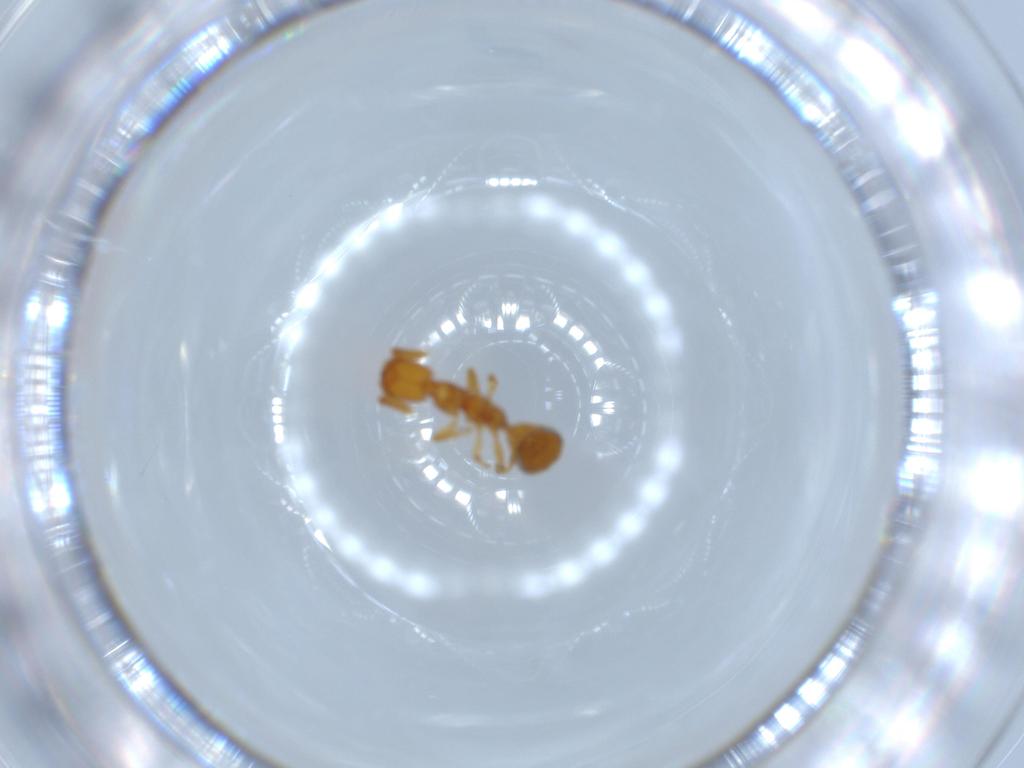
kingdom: Animalia
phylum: Arthropoda
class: Insecta
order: Hymenoptera
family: Bethylidae
